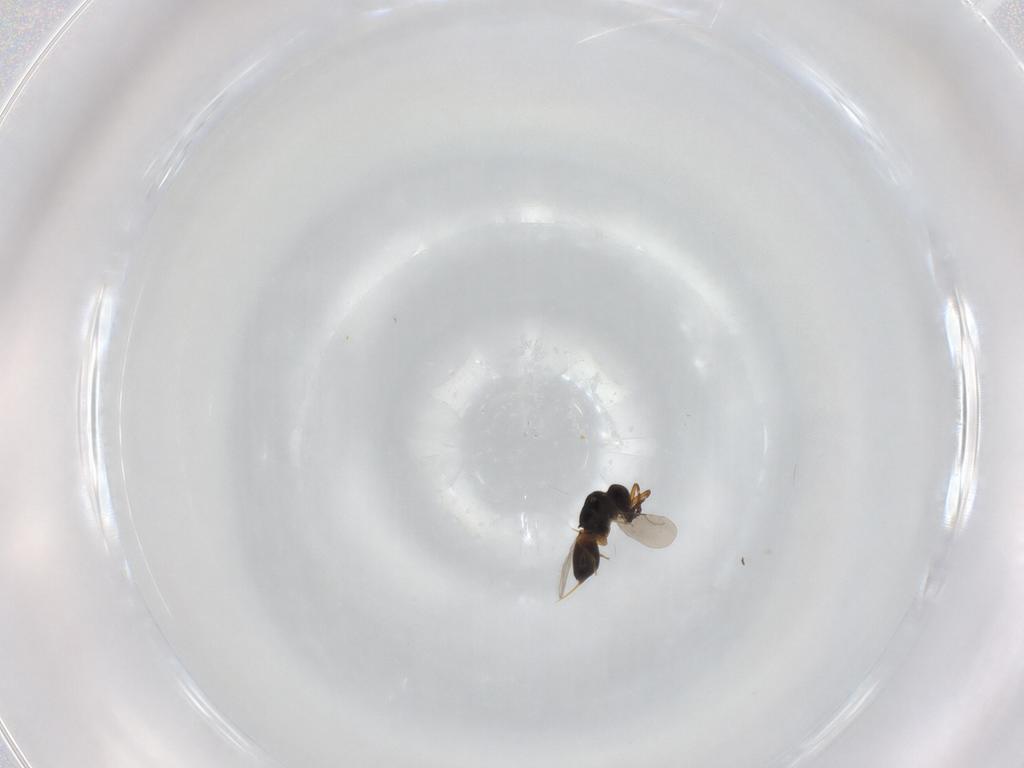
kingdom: Animalia
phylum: Arthropoda
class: Insecta
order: Hymenoptera
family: Ceraphronidae
